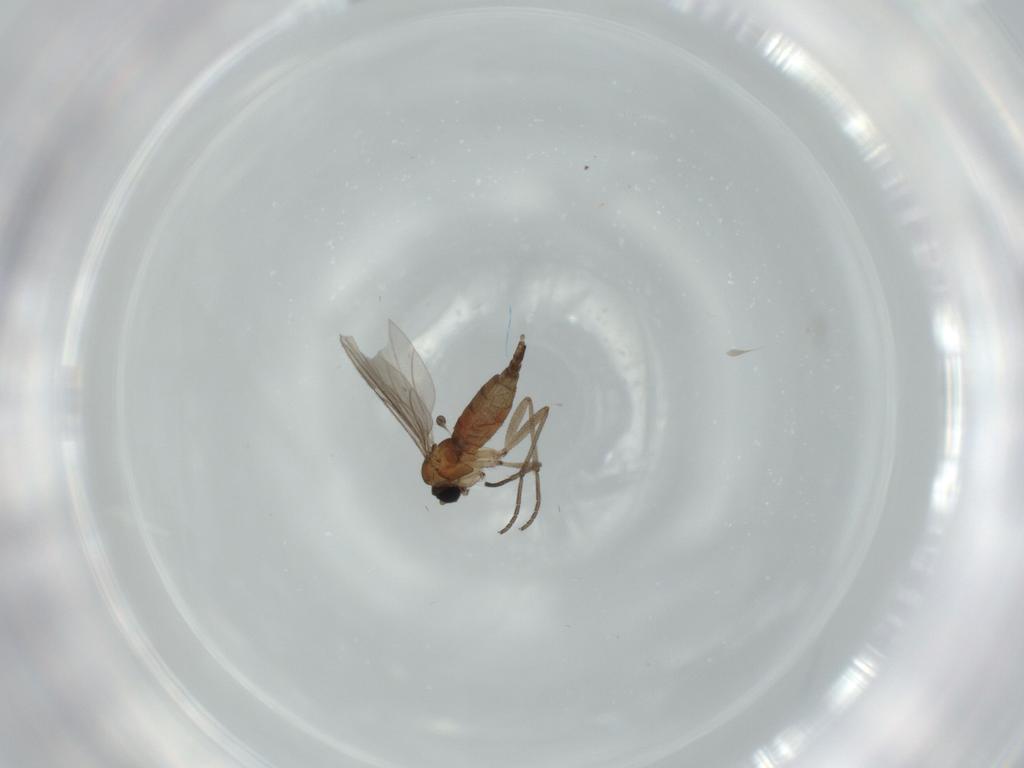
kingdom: Animalia
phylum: Arthropoda
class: Insecta
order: Diptera
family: Sciaridae
